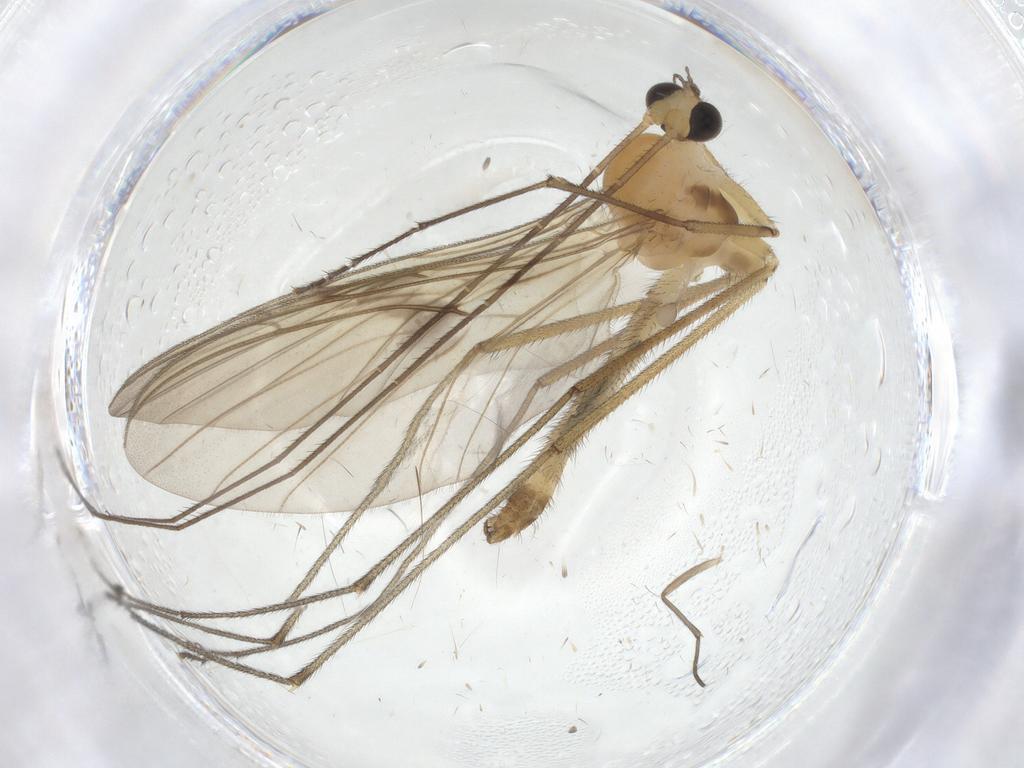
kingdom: Animalia
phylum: Arthropoda
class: Insecta
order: Diptera
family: Keroplatidae
